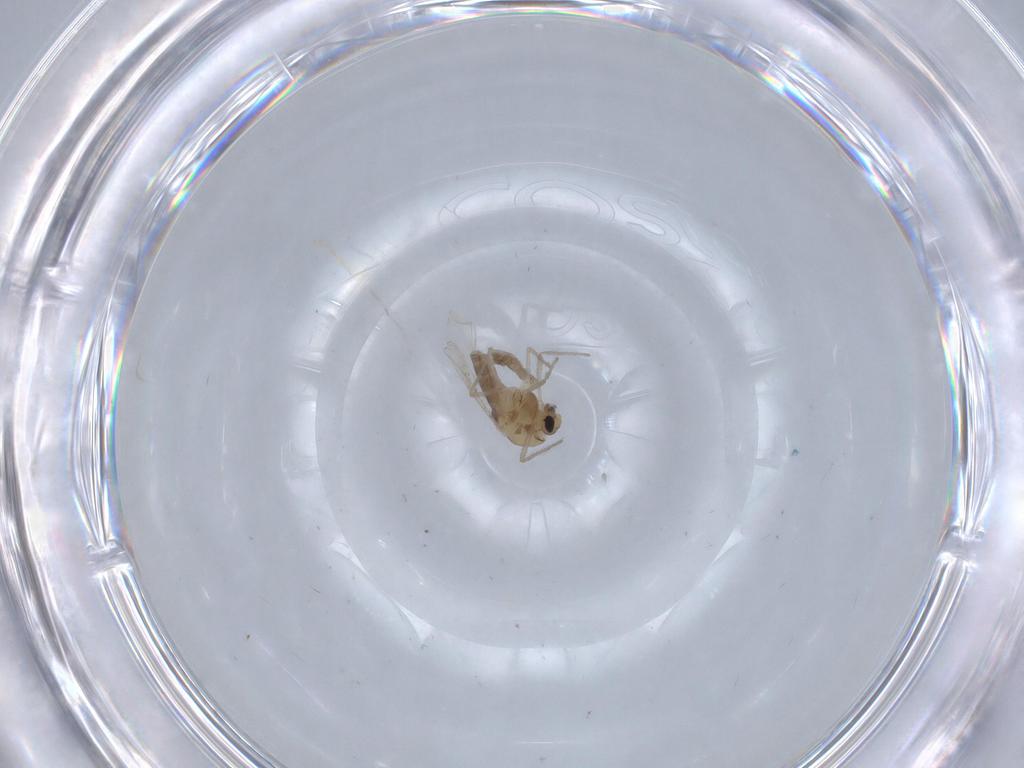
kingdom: Animalia
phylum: Arthropoda
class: Insecta
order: Diptera
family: Chironomidae
